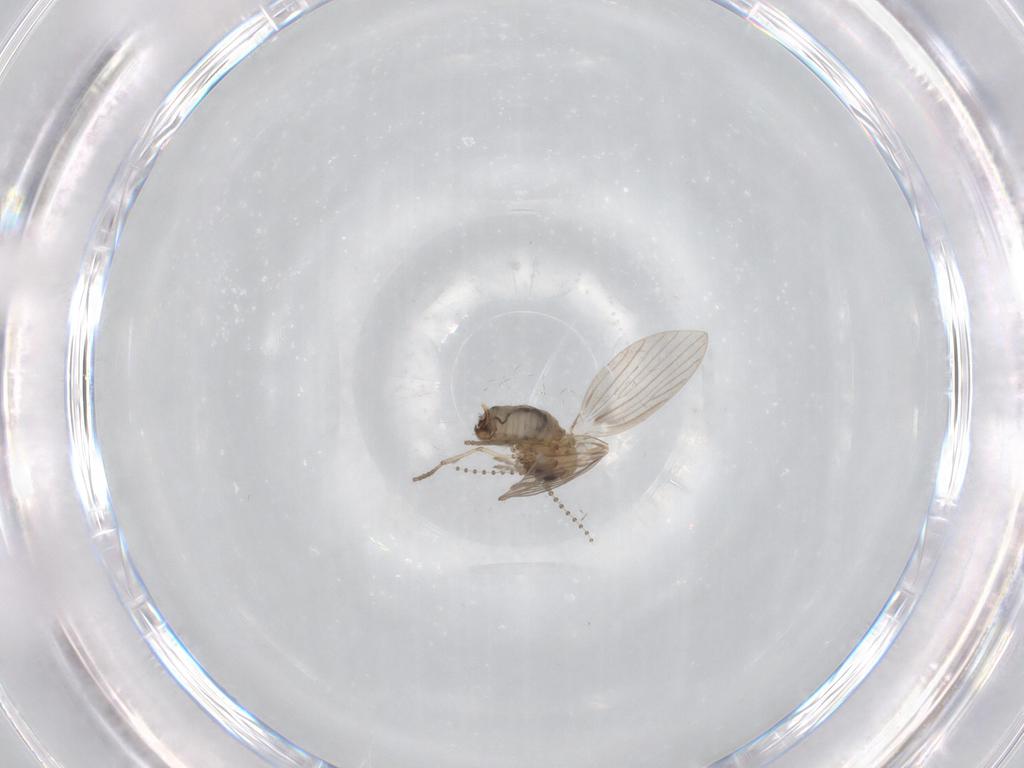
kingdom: Animalia
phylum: Arthropoda
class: Insecta
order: Diptera
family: Psychodidae
